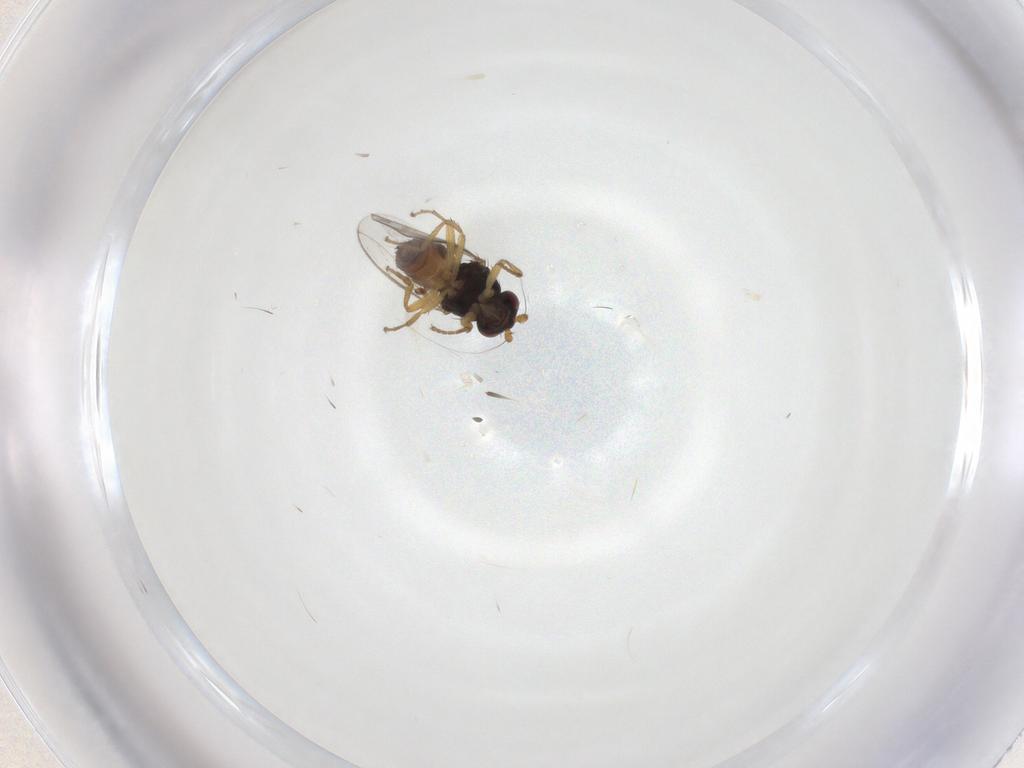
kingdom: Animalia
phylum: Arthropoda
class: Insecta
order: Diptera
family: Sphaeroceridae
